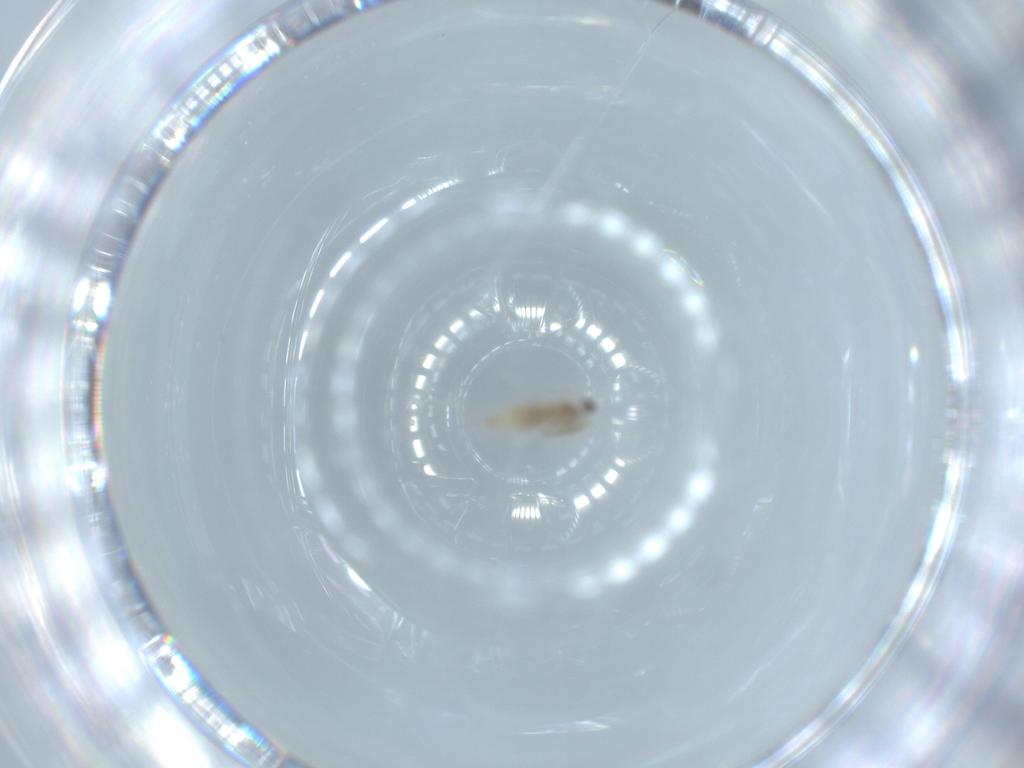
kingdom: Animalia
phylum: Arthropoda
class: Insecta
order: Diptera
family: Cecidomyiidae
